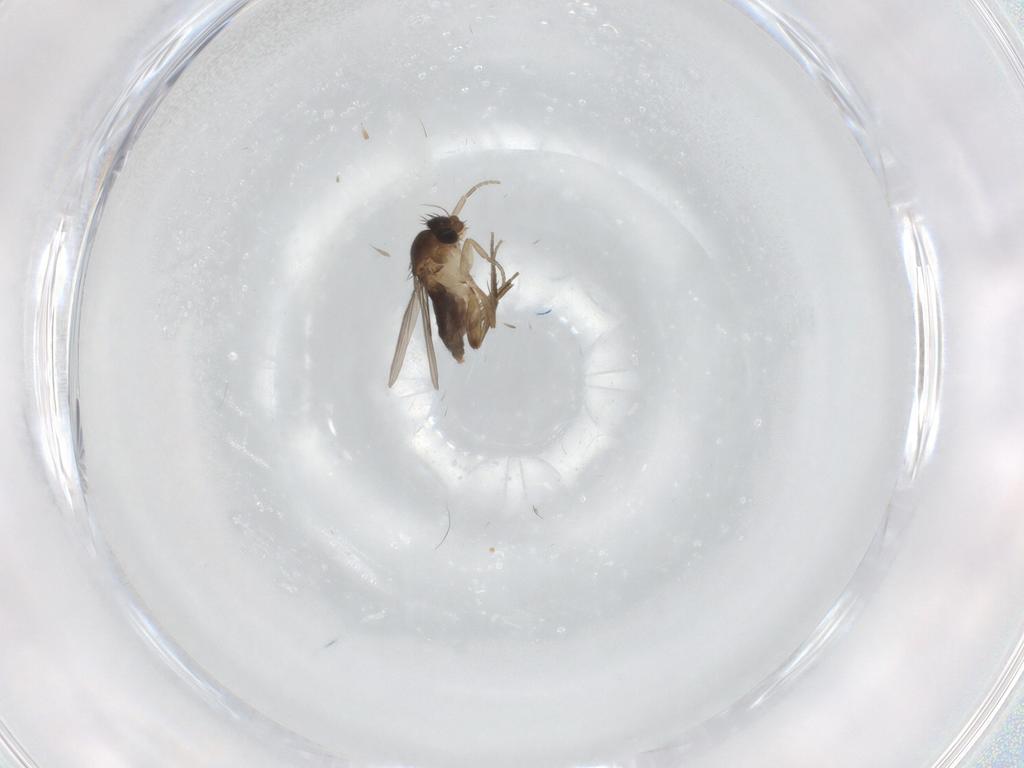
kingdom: Animalia
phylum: Arthropoda
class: Insecta
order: Diptera
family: Phoridae
